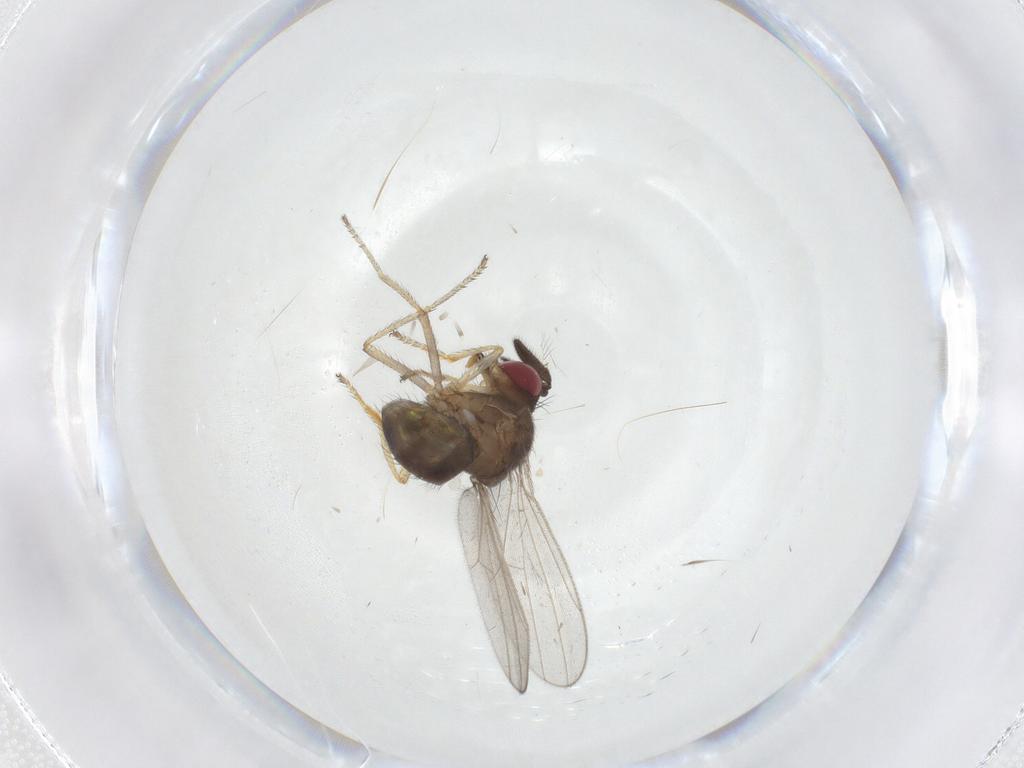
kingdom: Animalia
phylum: Arthropoda
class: Insecta
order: Diptera
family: Ephydridae
